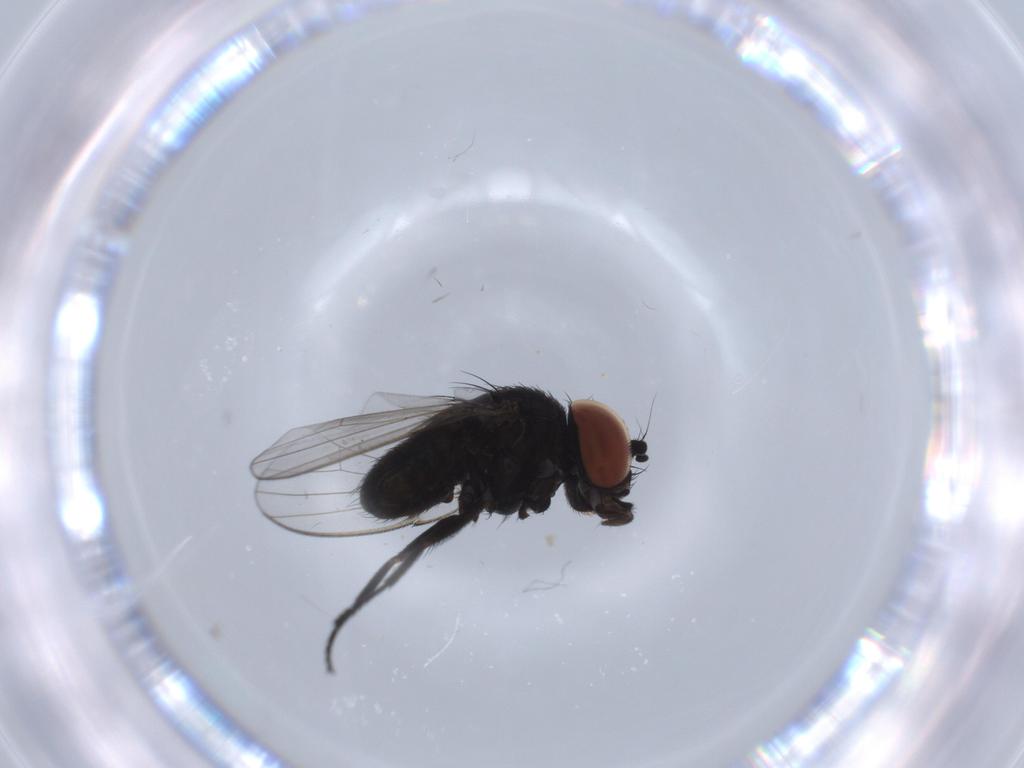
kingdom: Animalia
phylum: Arthropoda
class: Insecta
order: Diptera
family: Milichiidae
